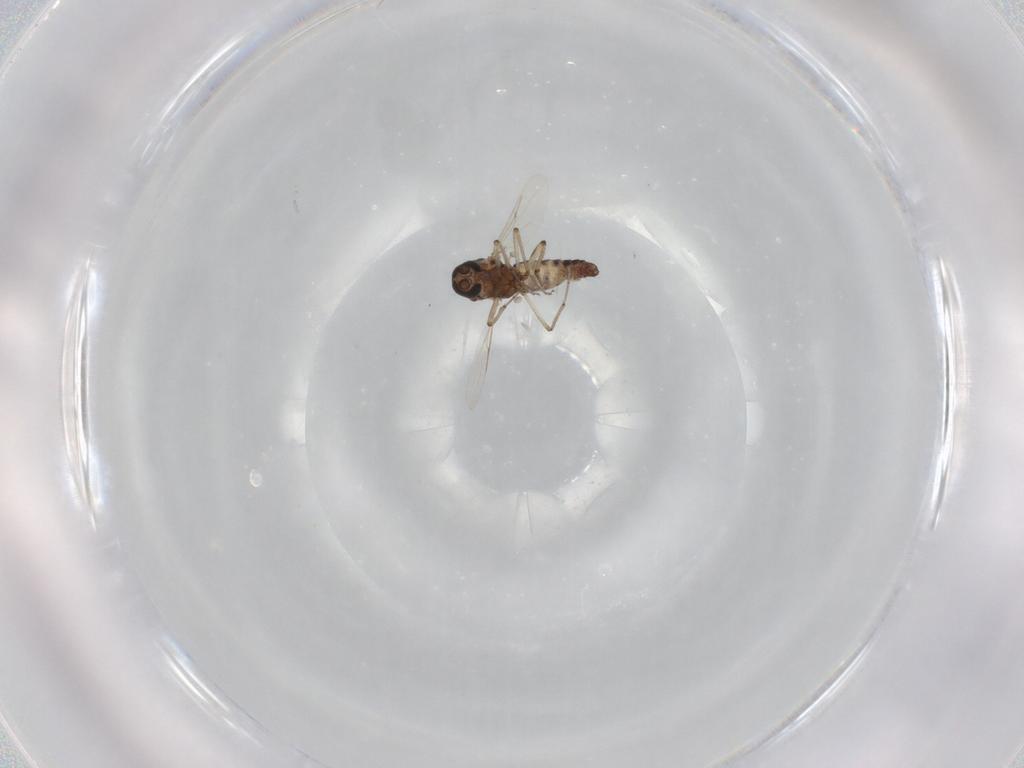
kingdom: Animalia
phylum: Arthropoda
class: Insecta
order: Diptera
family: Ceratopogonidae
